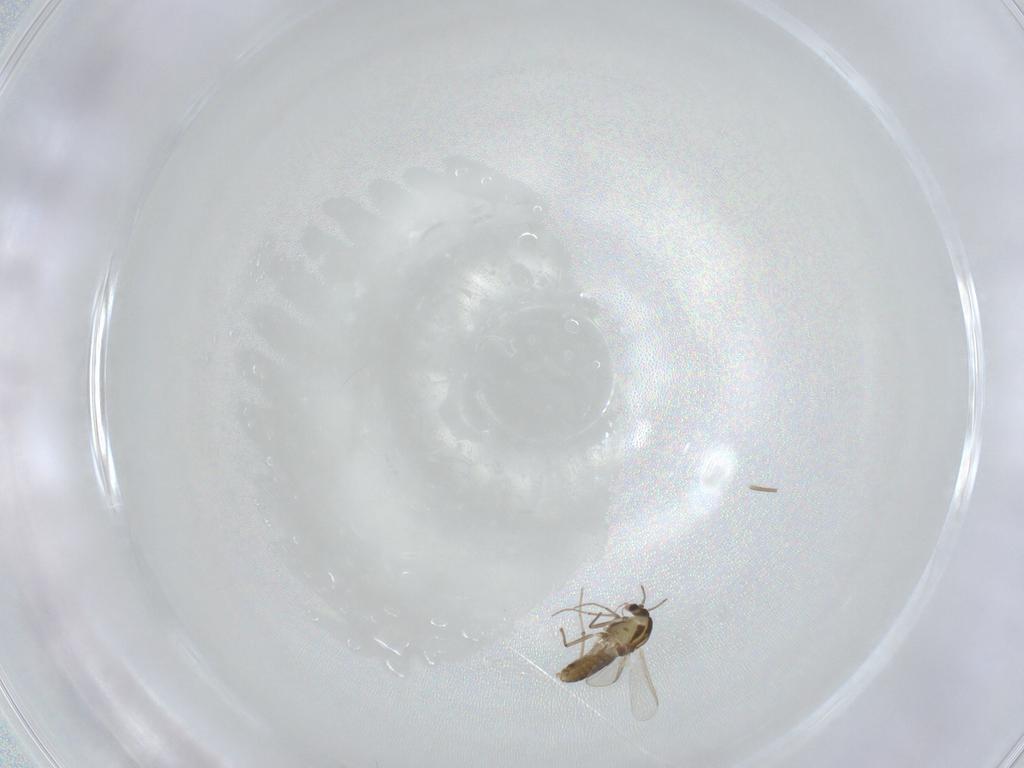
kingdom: Animalia
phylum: Arthropoda
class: Insecta
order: Diptera
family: Chironomidae
